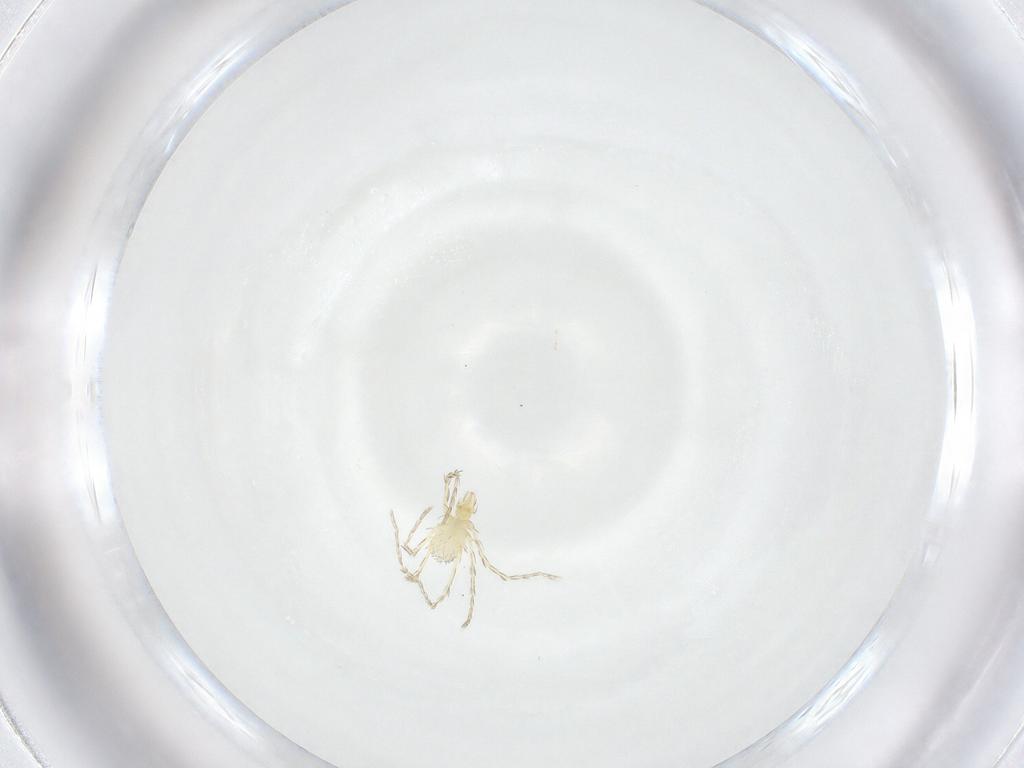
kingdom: Animalia
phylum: Arthropoda
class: Arachnida
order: Trombidiformes
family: Erythraeidae
